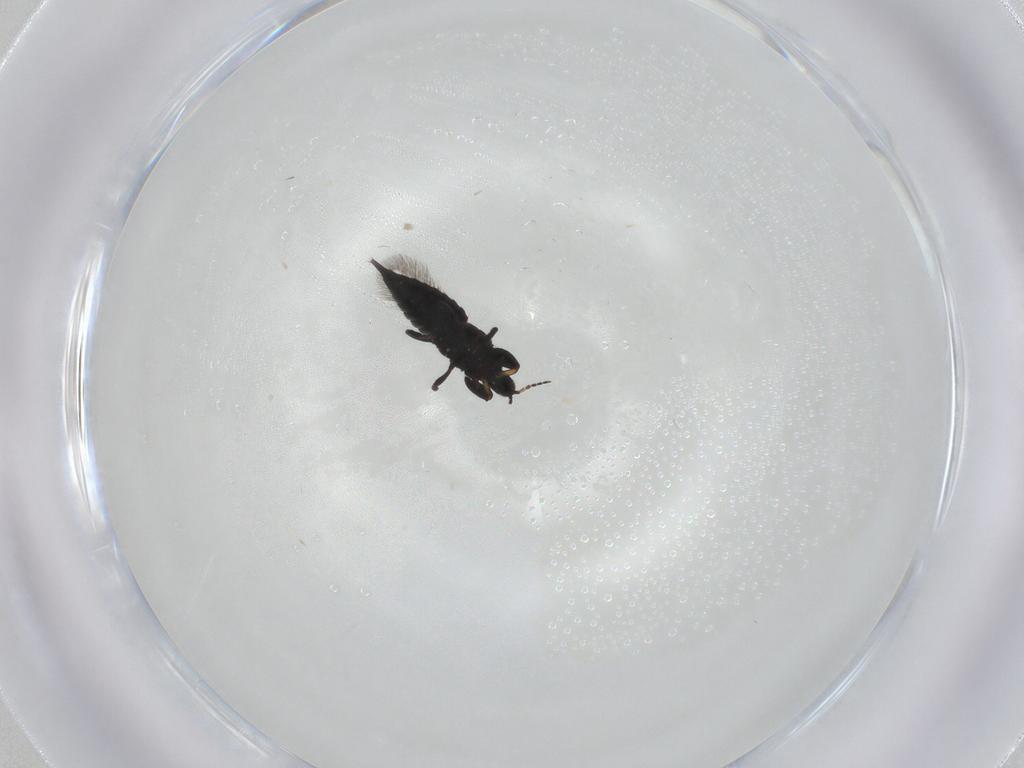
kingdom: Animalia
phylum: Arthropoda
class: Insecta
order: Thysanoptera
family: Phlaeothripidae
